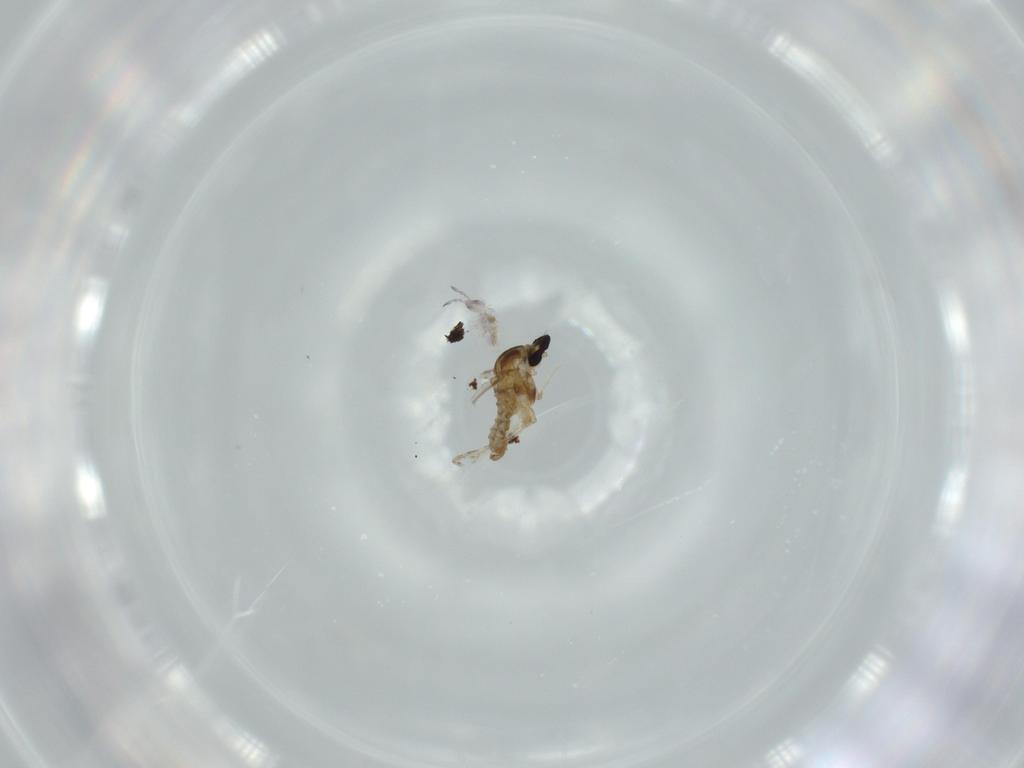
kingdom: Animalia
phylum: Arthropoda
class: Insecta
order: Diptera
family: Cecidomyiidae
